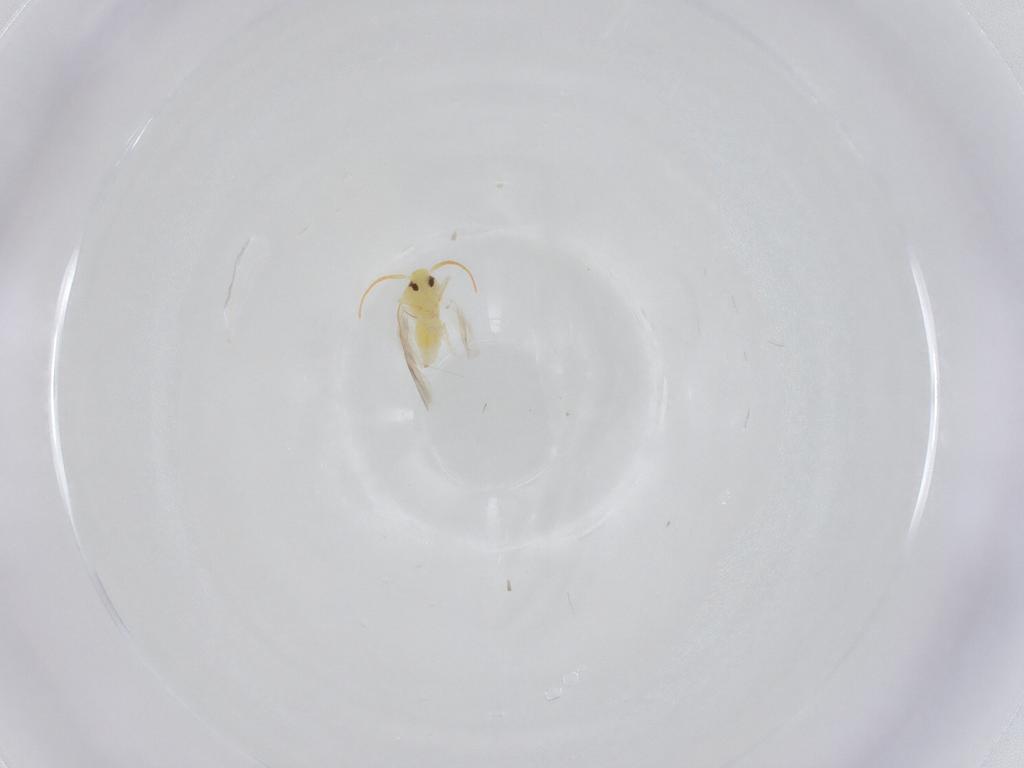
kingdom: Animalia
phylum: Arthropoda
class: Insecta
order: Hemiptera
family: Aleyrodidae
